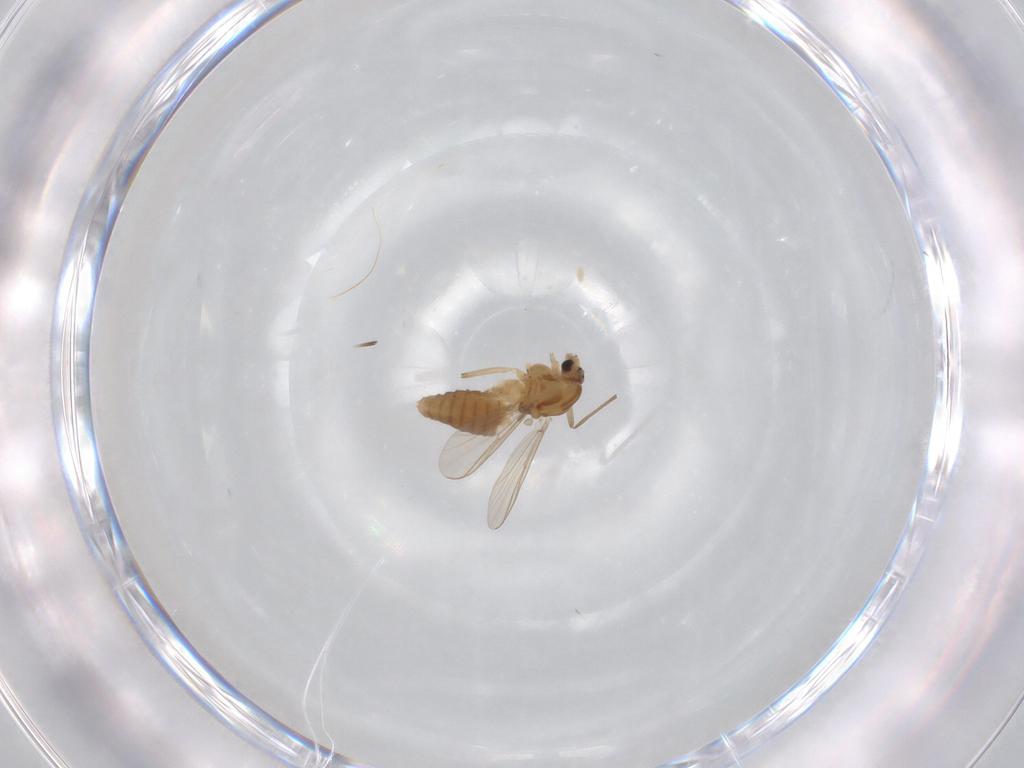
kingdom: Animalia
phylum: Arthropoda
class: Insecta
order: Diptera
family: Chironomidae
